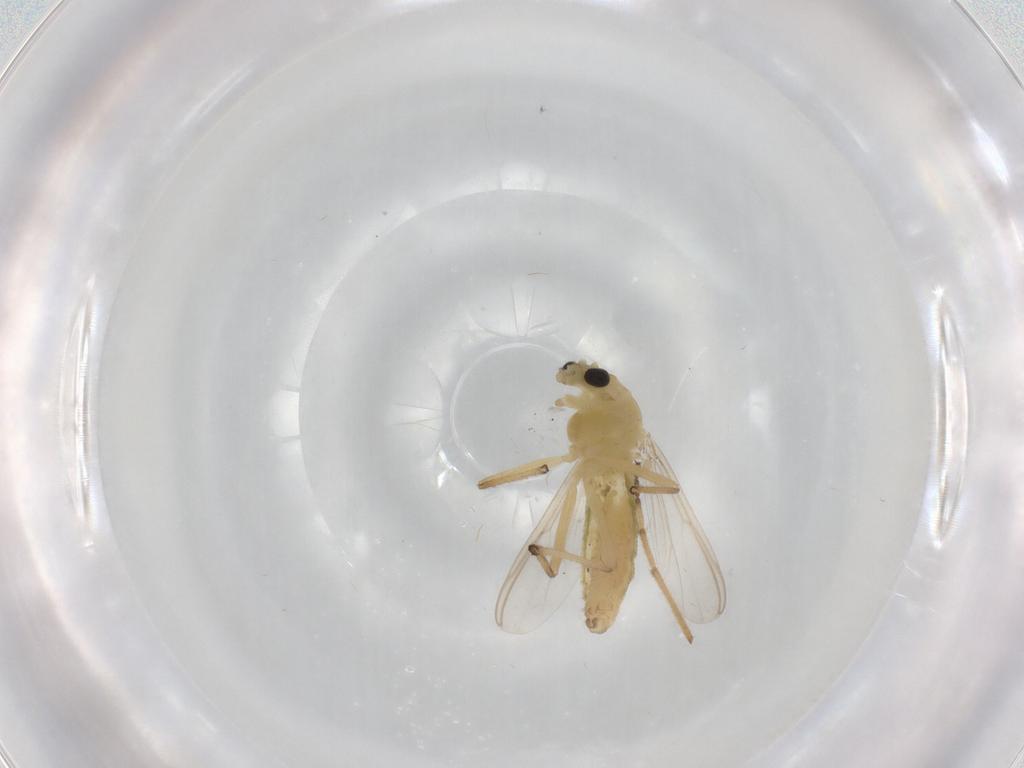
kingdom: Animalia
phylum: Arthropoda
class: Insecta
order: Diptera
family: Chironomidae
